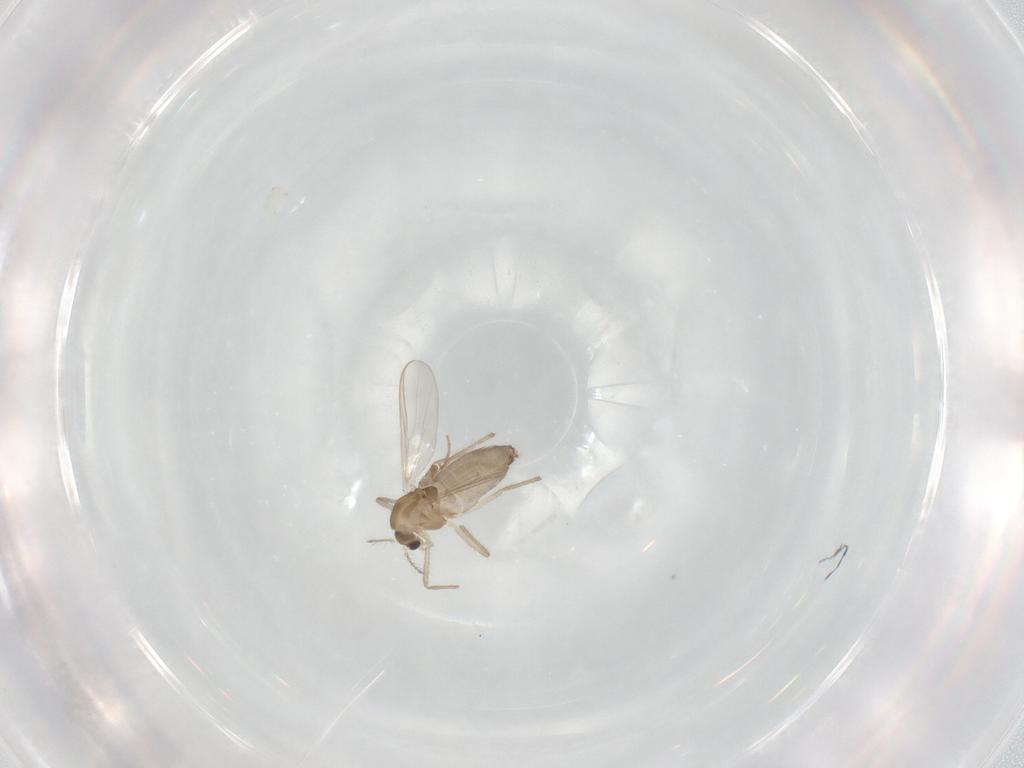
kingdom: Animalia
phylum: Arthropoda
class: Insecta
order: Diptera
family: Chironomidae
